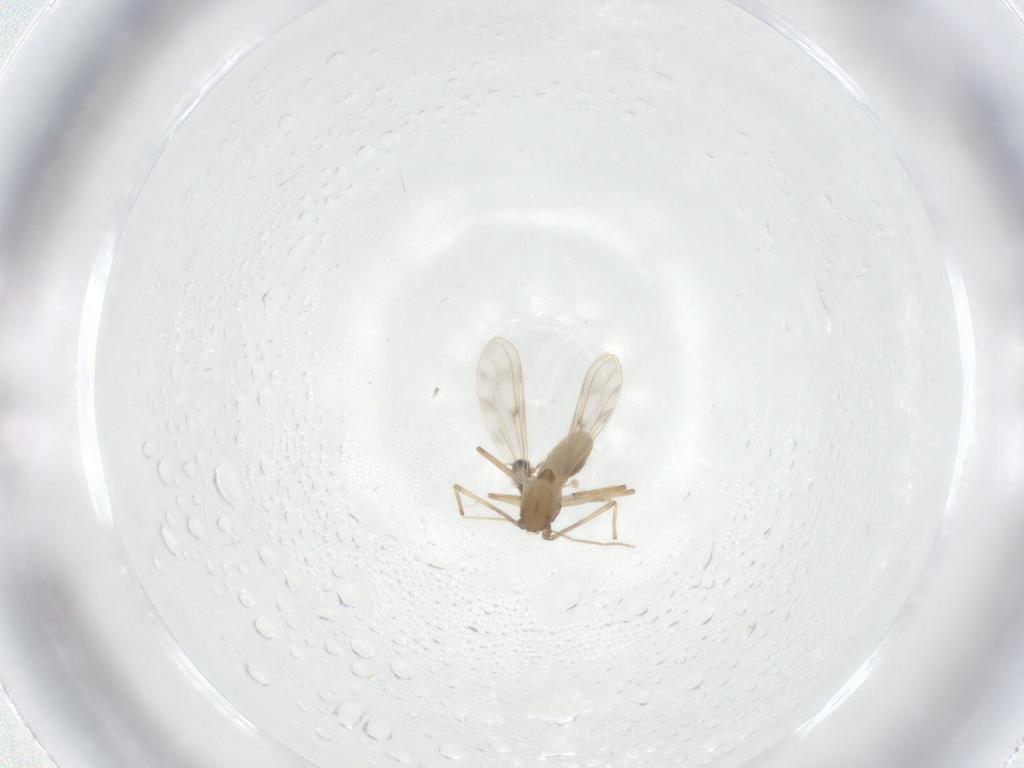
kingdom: Animalia
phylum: Arthropoda
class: Insecta
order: Diptera
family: Chironomidae
